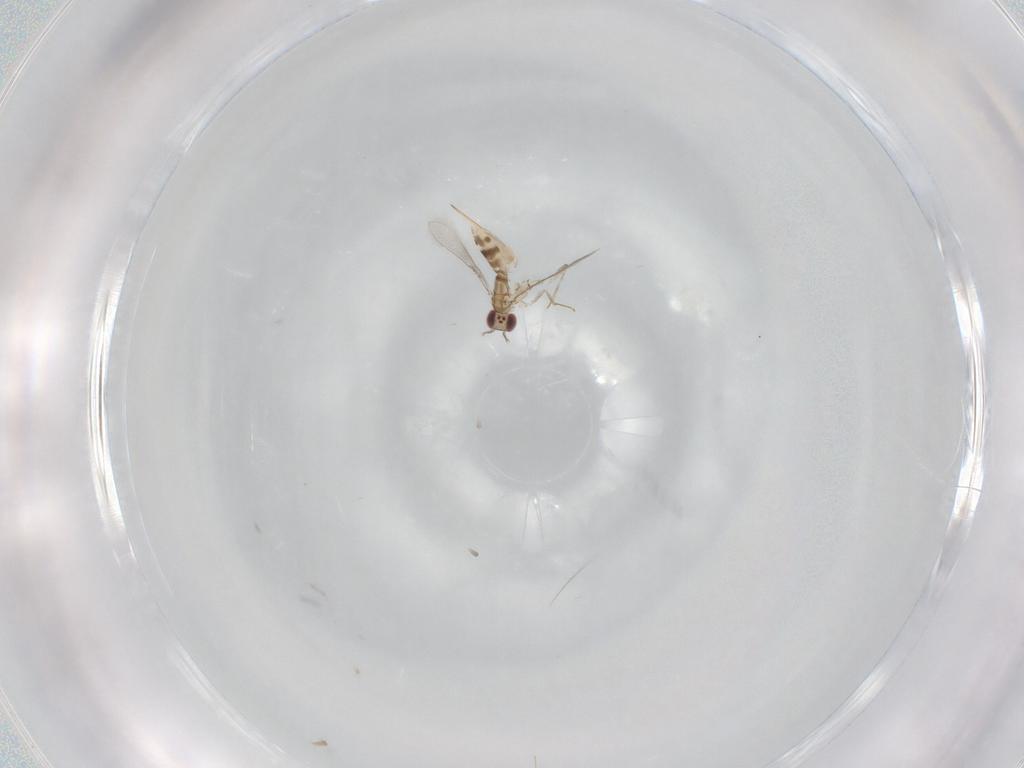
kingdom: Animalia
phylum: Arthropoda
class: Insecta
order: Hymenoptera
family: Mymaridae
